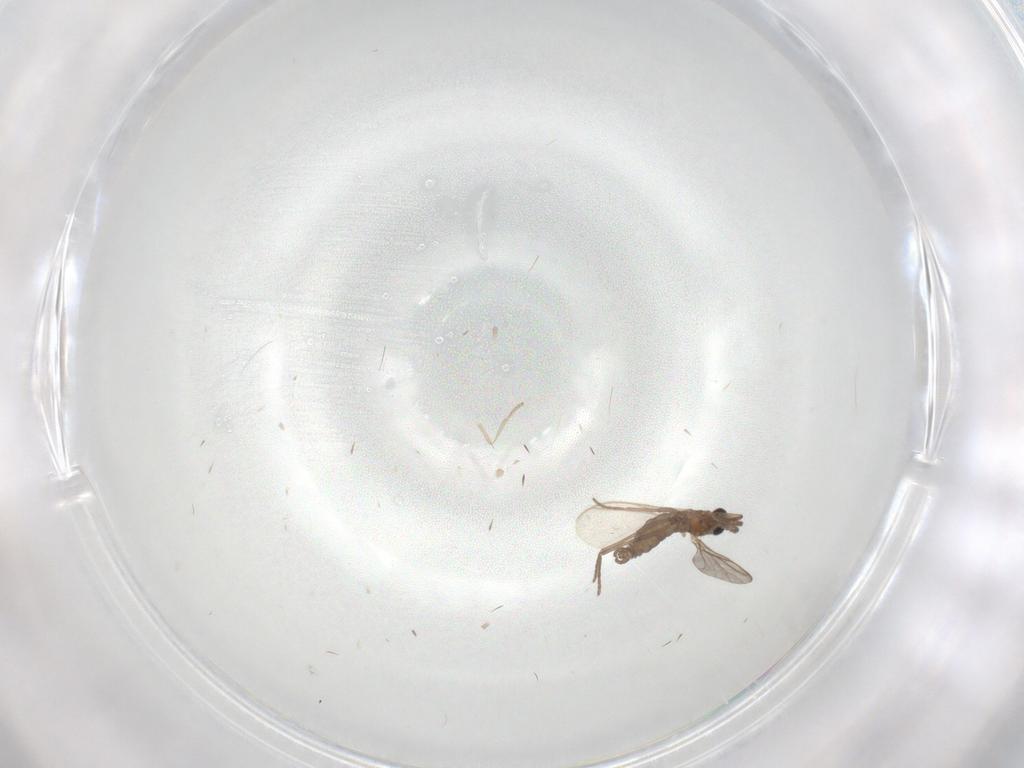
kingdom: Animalia
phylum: Arthropoda
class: Insecta
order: Diptera
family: Psychodidae
